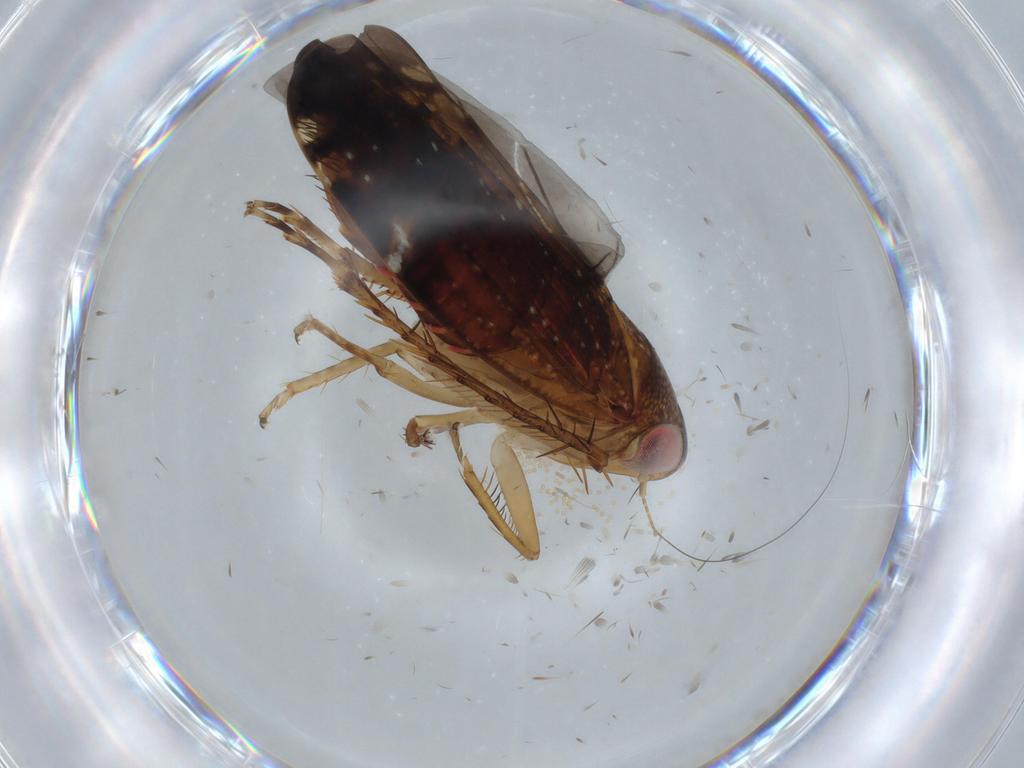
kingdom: Animalia
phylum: Arthropoda
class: Insecta
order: Hemiptera
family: Cicadellidae
